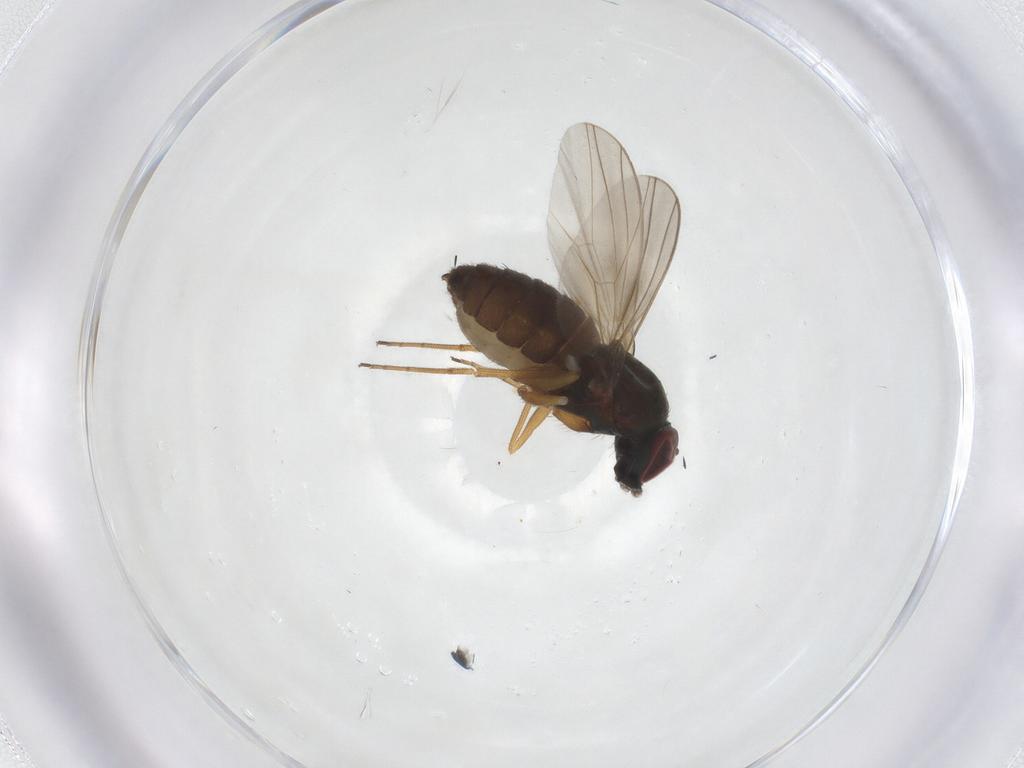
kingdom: Animalia
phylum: Arthropoda
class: Insecta
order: Diptera
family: Dolichopodidae
